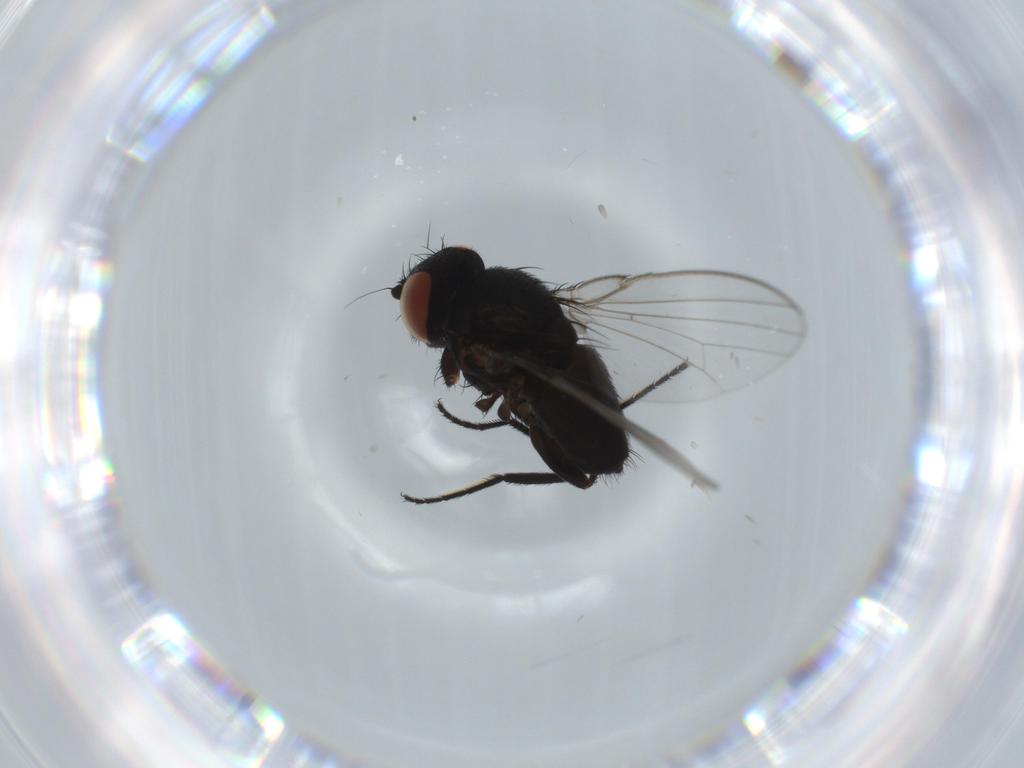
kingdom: Animalia
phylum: Arthropoda
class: Insecta
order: Diptera
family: Milichiidae
